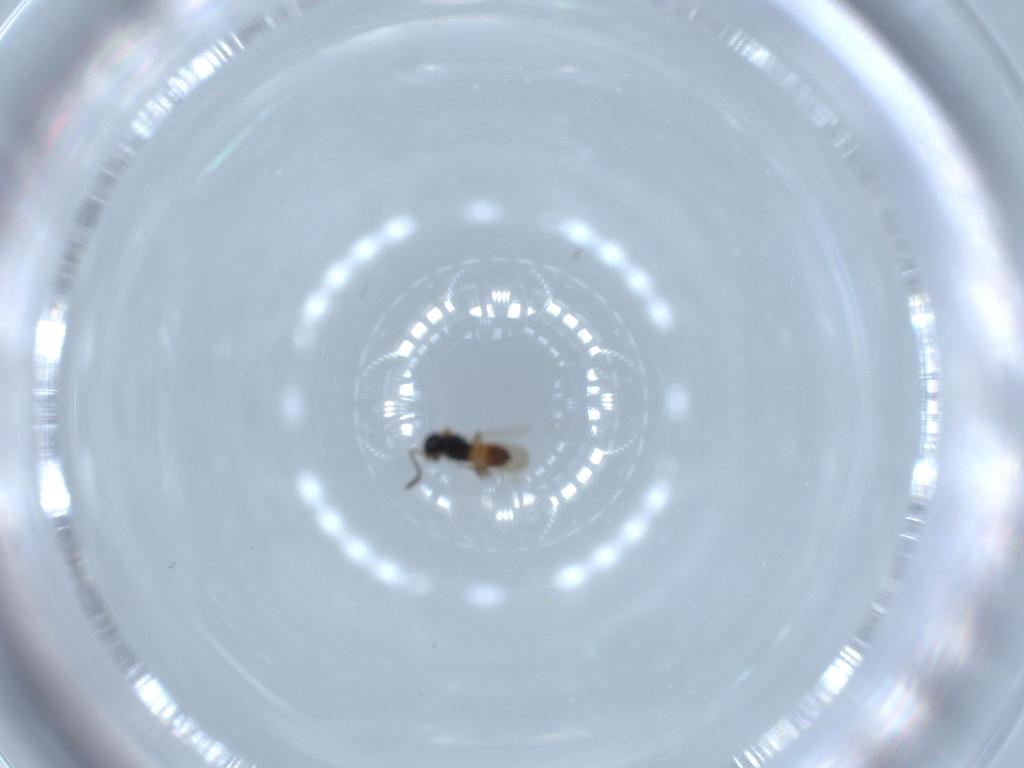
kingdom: Animalia
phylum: Arthropoda
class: Insecta
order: Hymenoptera
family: Scelionidae
